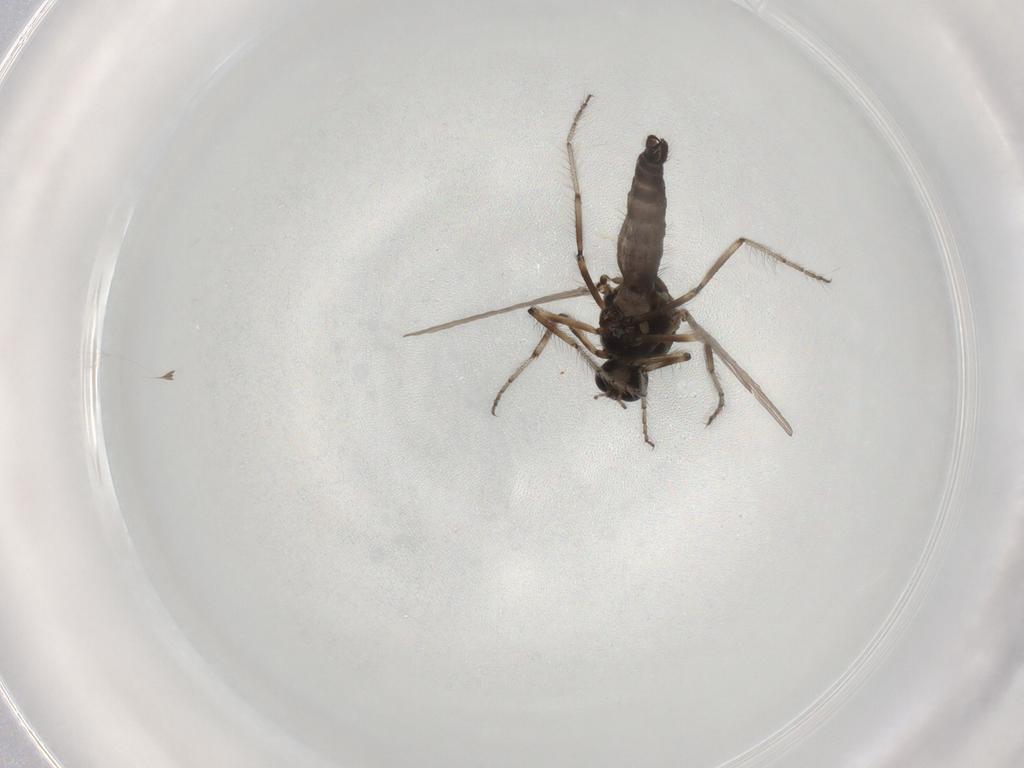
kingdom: Animalia
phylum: Arthropoda
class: Insecta
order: Diptera
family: Ceratopogonidae
